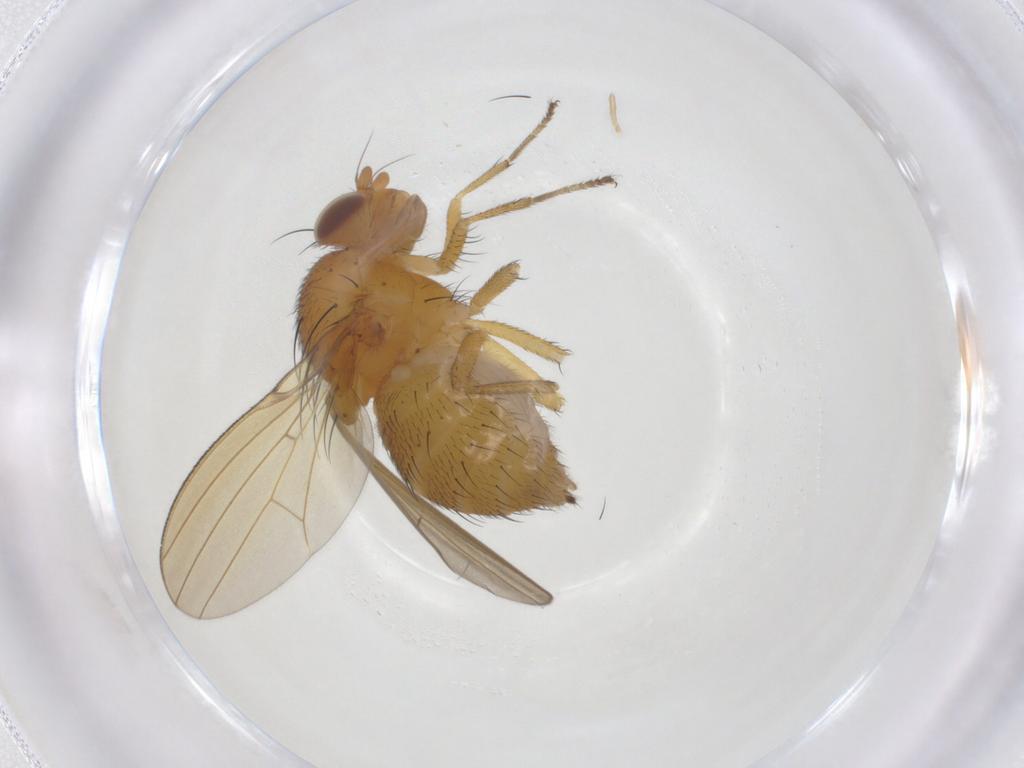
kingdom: Animalia
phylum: Arthropoda
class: Insecta
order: Diptera
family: Lauxaniidae
